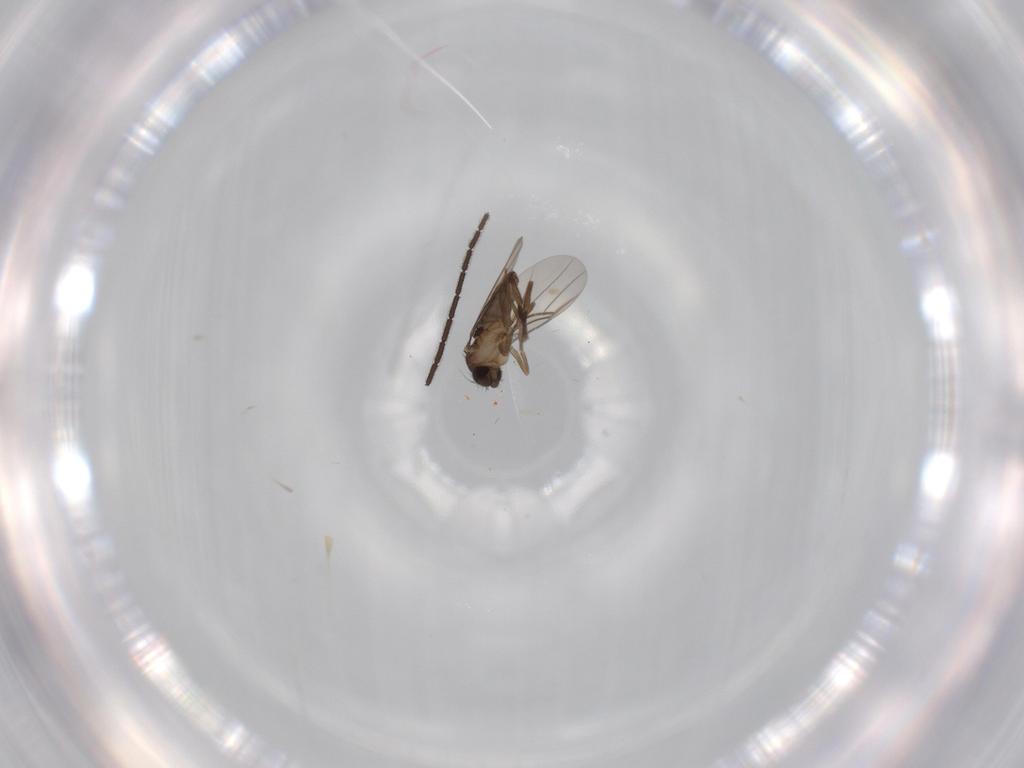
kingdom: Animalia
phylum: Arthropoda
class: Insecta
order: Diptera
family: Phoridae
